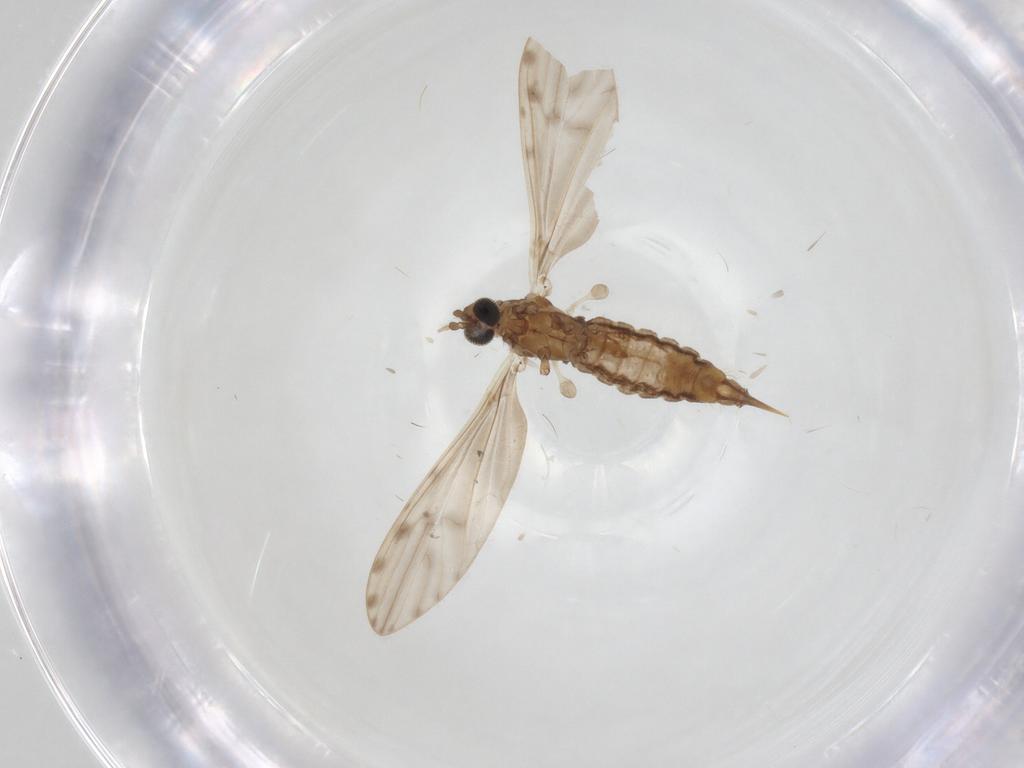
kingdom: Animalia
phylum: Arthropoda
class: Insecta
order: Diptera
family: Limoniidae
